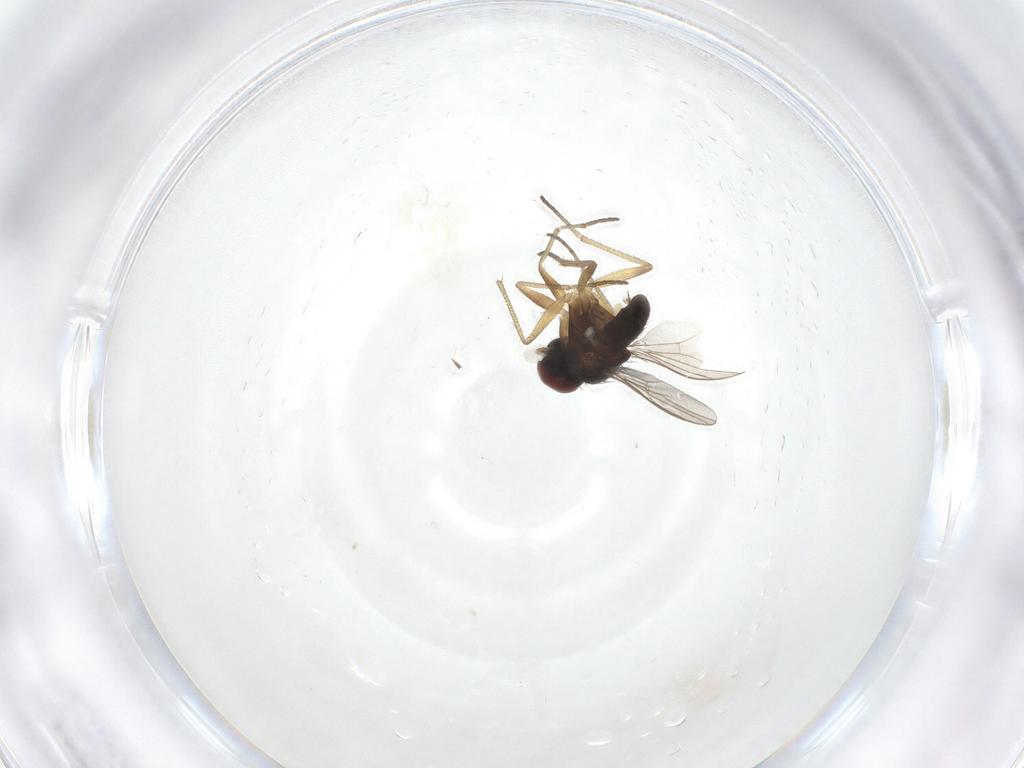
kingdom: Animalia
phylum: Arthropoda
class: Insecta
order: Diptera
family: Dolichopodidae
